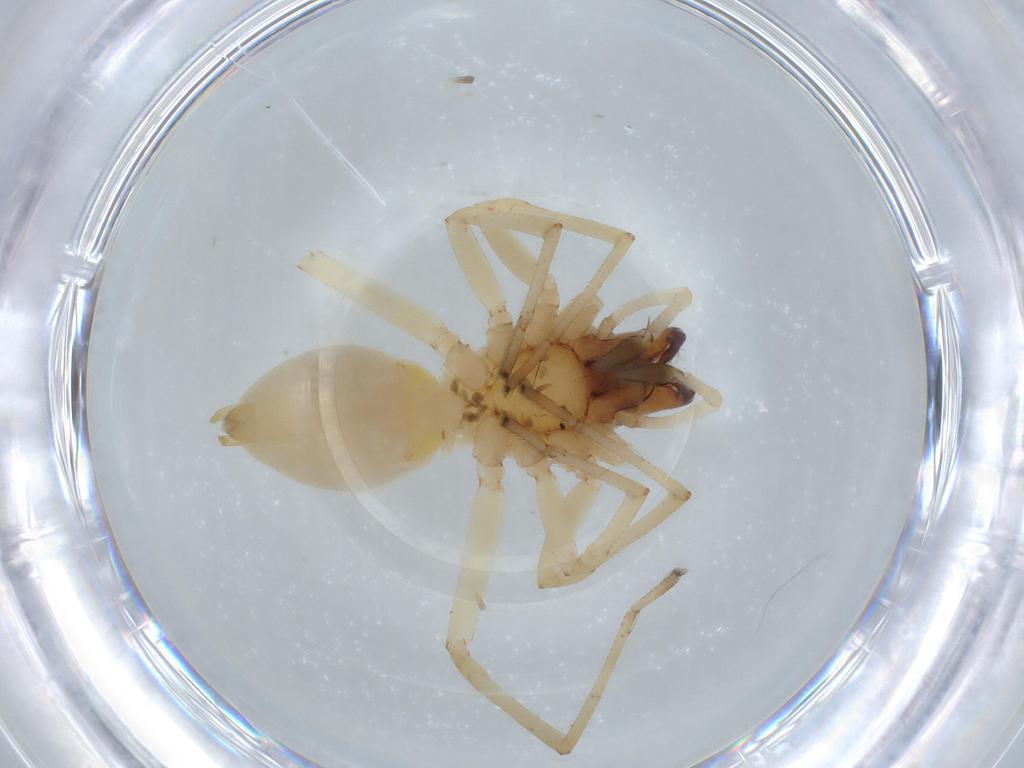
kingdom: Animalia
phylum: Arthropoda
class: Arachnida
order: Araneae
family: Cheiracanthiidae
